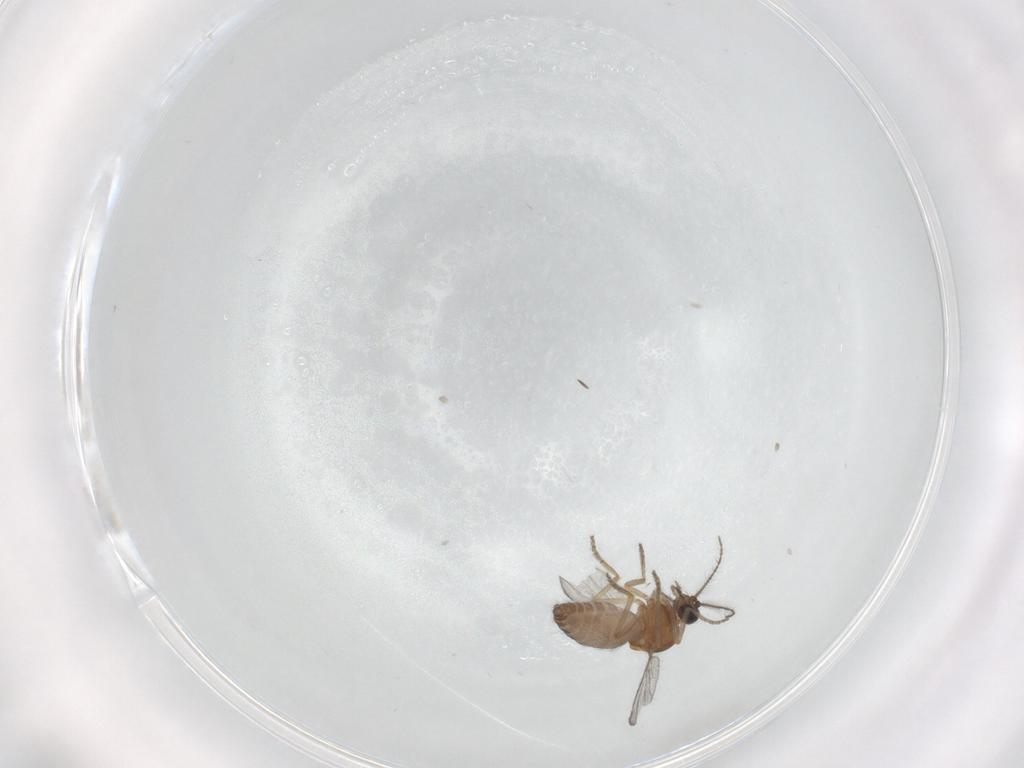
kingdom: Animalia
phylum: Arthropoda
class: Insecta
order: Diptera
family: Ceratopogonidae
